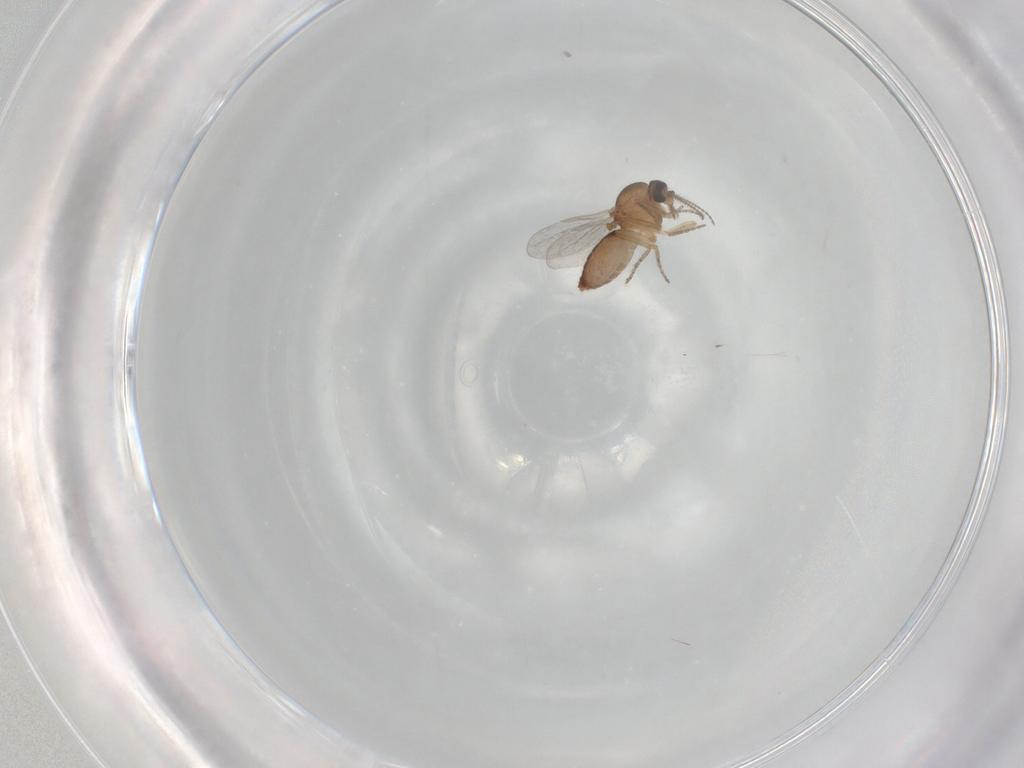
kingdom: Animalia
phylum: Arthropoda
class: Insecta
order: Diptera
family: Ceratopogonidae
